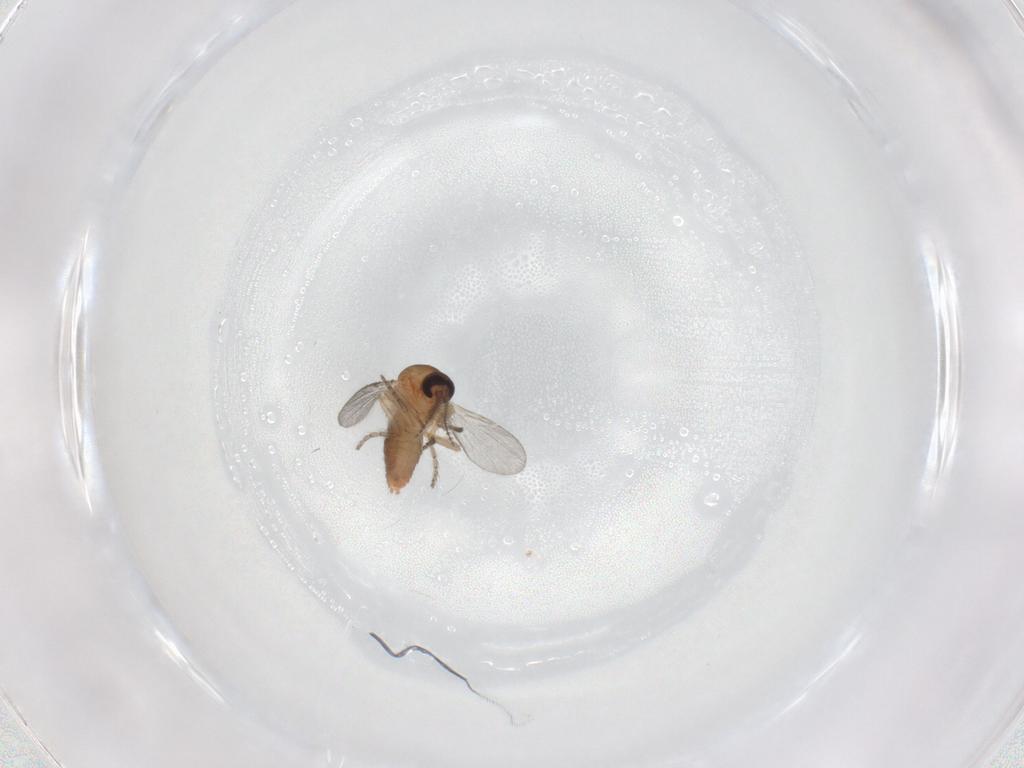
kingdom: Animalia
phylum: Arthropoda
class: Insecta
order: Diptera
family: Ceratopogonidae
